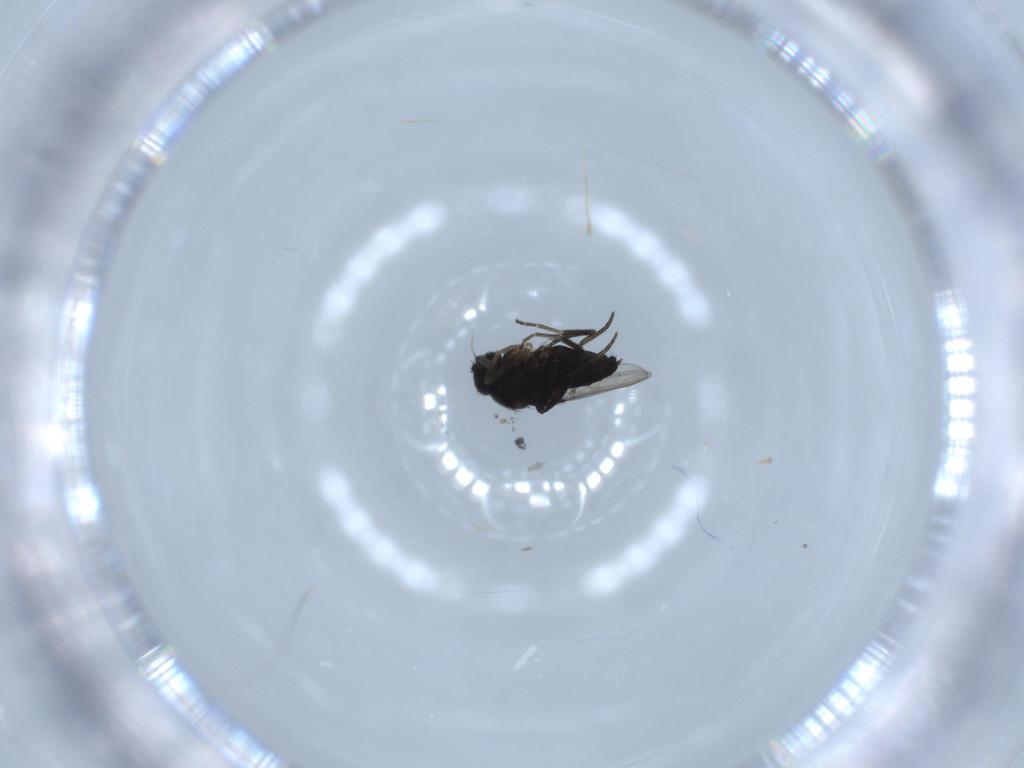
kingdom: Animalia
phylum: Arthropoda
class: Insecta
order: Diptera
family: Phoridae
